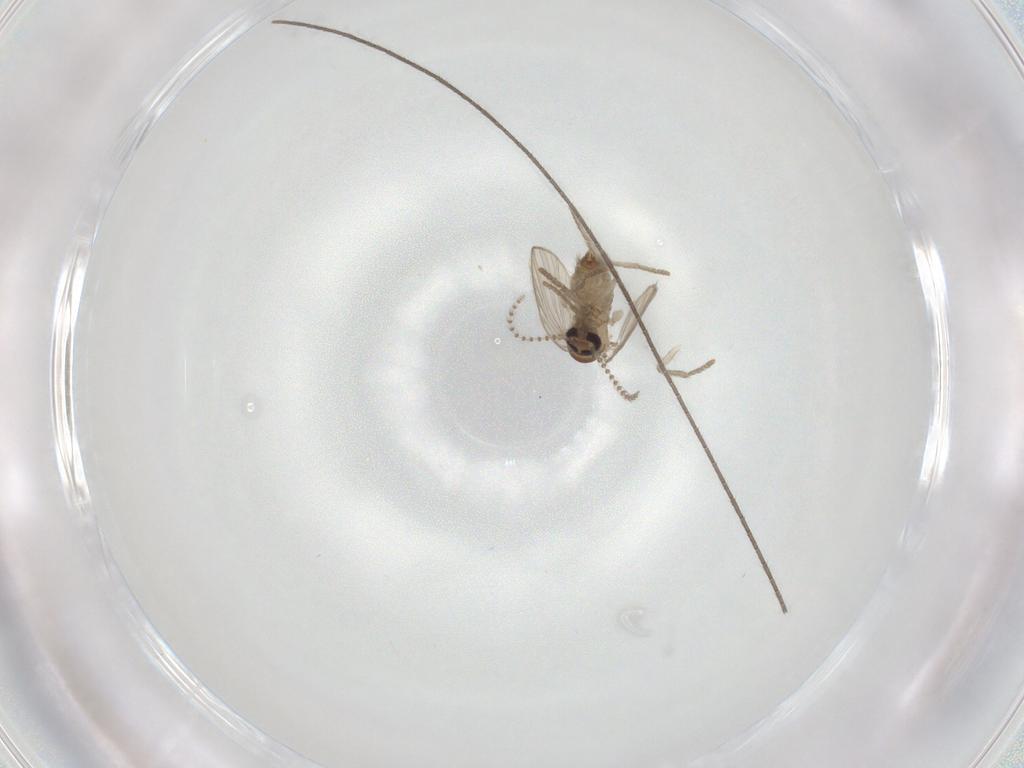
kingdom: Animalia
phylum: Arthropoda
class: Insecta
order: Diptera
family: Psychodidae
